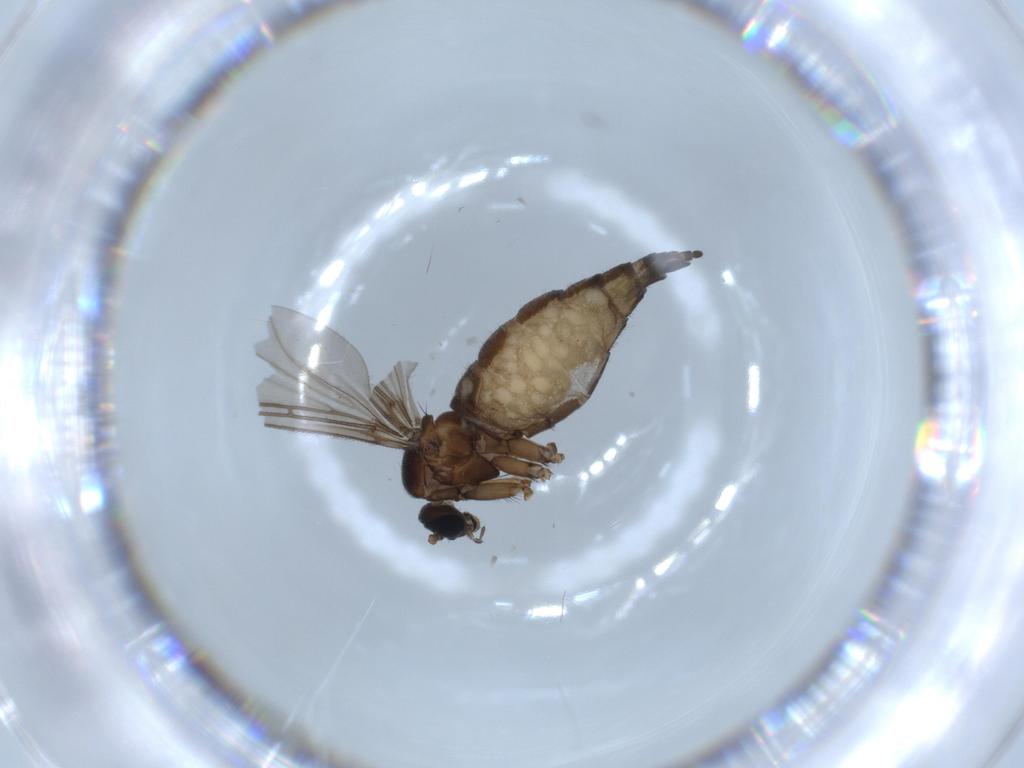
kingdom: Animalia
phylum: Arthropoda
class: Insecta
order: Diptera
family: Sciaridae
